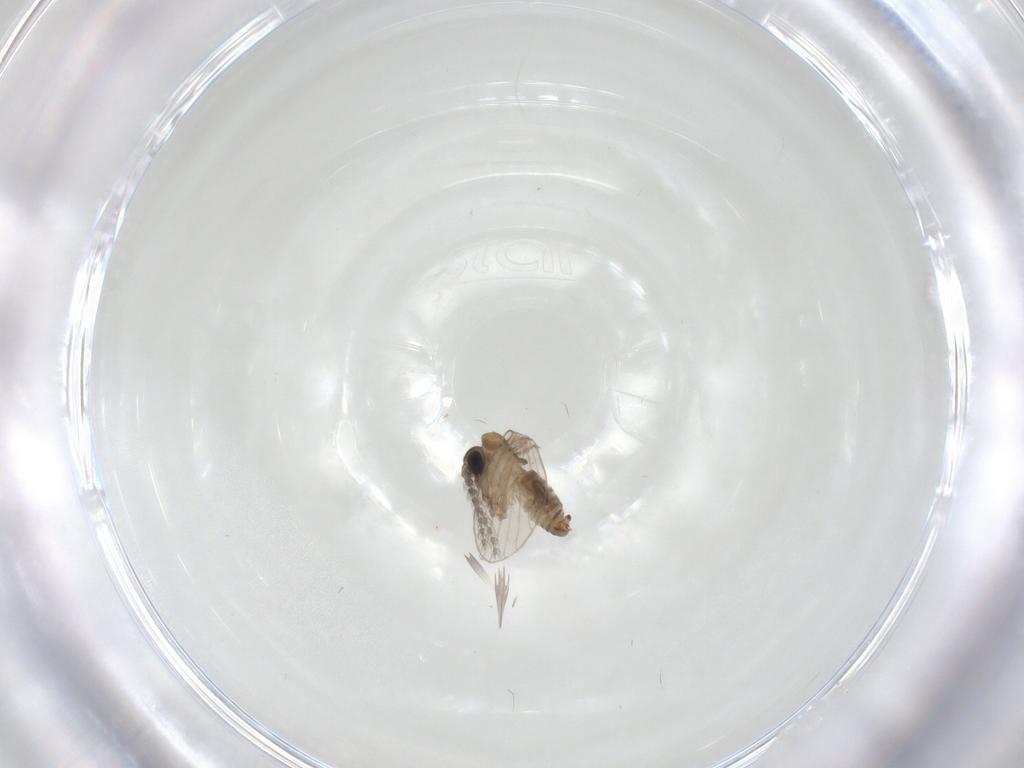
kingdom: Animalia
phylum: Arthropoda
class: Insecta
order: Diptera
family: Psychodidae
